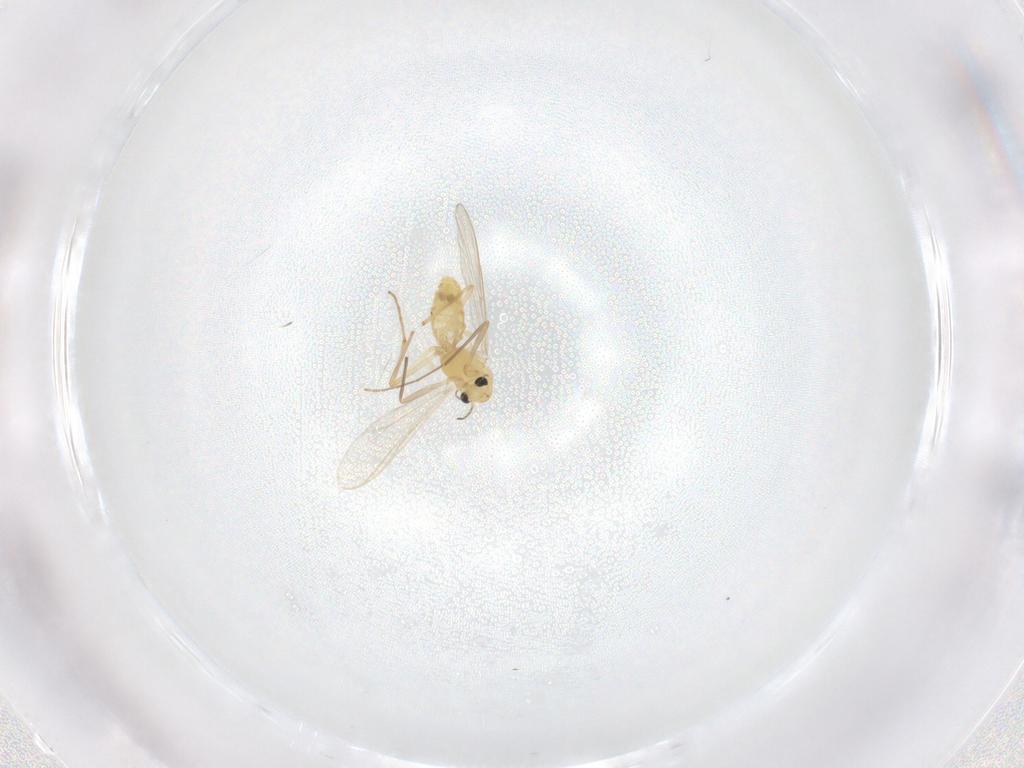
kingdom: Animalia
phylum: Arthropoda
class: Insecta
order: Diptera
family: Chironomidae
